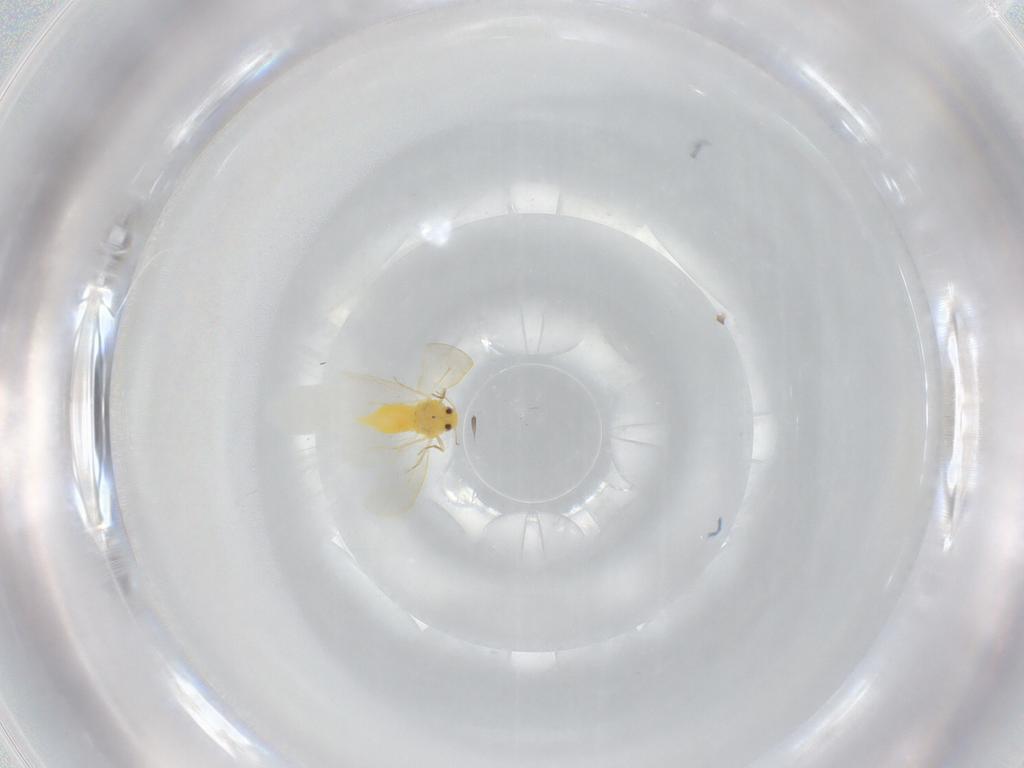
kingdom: Animalia
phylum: Arthropoda
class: Insecta
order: Hemiptera
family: Aleyrodidae
